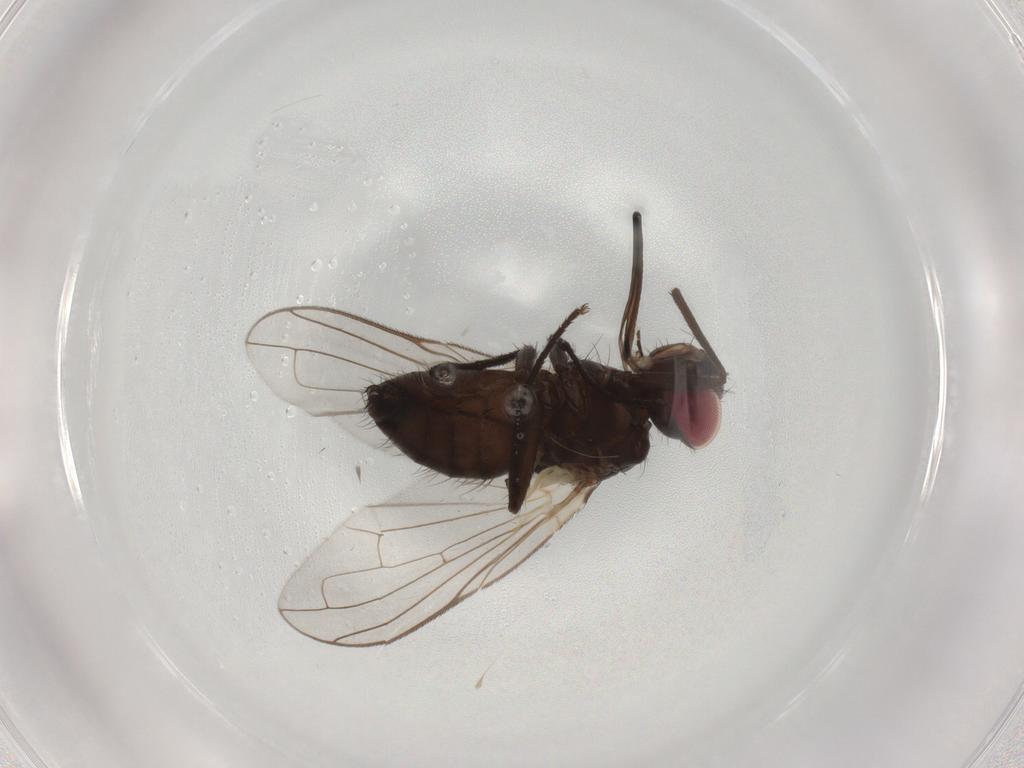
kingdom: Animalia
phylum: Arthropoda
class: Insecta
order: Diptera
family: Tachinidae
